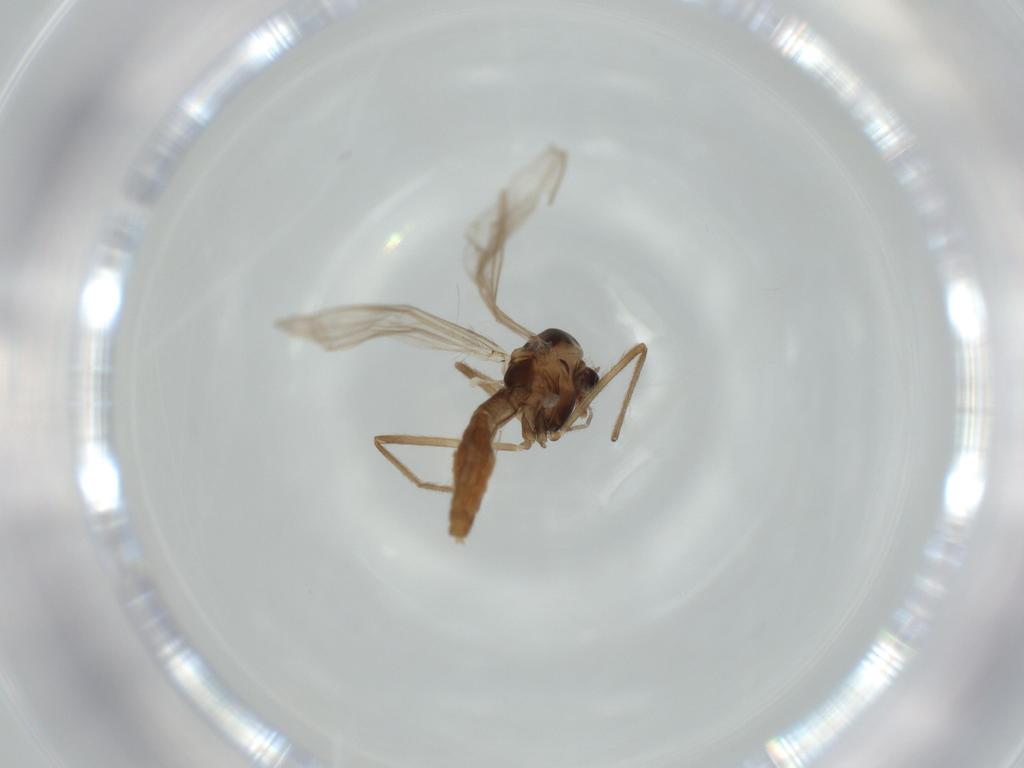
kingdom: Animalia
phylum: Arthropoda
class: Insecta
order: Diptera
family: Chironomidae
